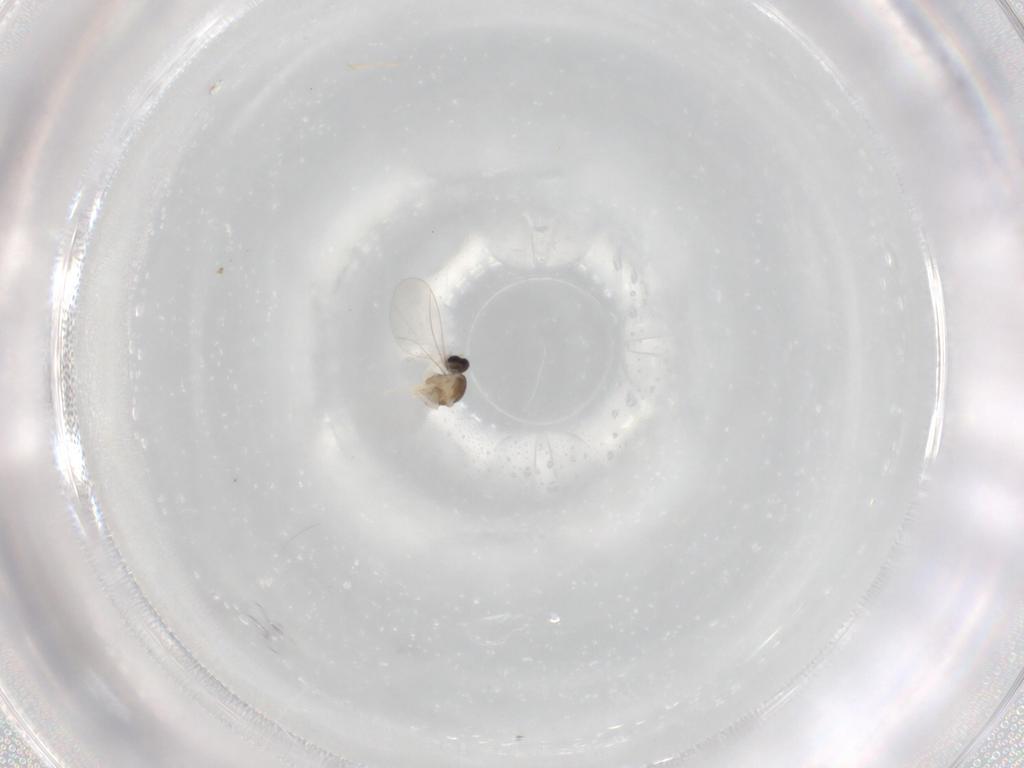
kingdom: Animalia
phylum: Arthropoda
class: Insecta
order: Diptera
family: Cecidomyiidae
